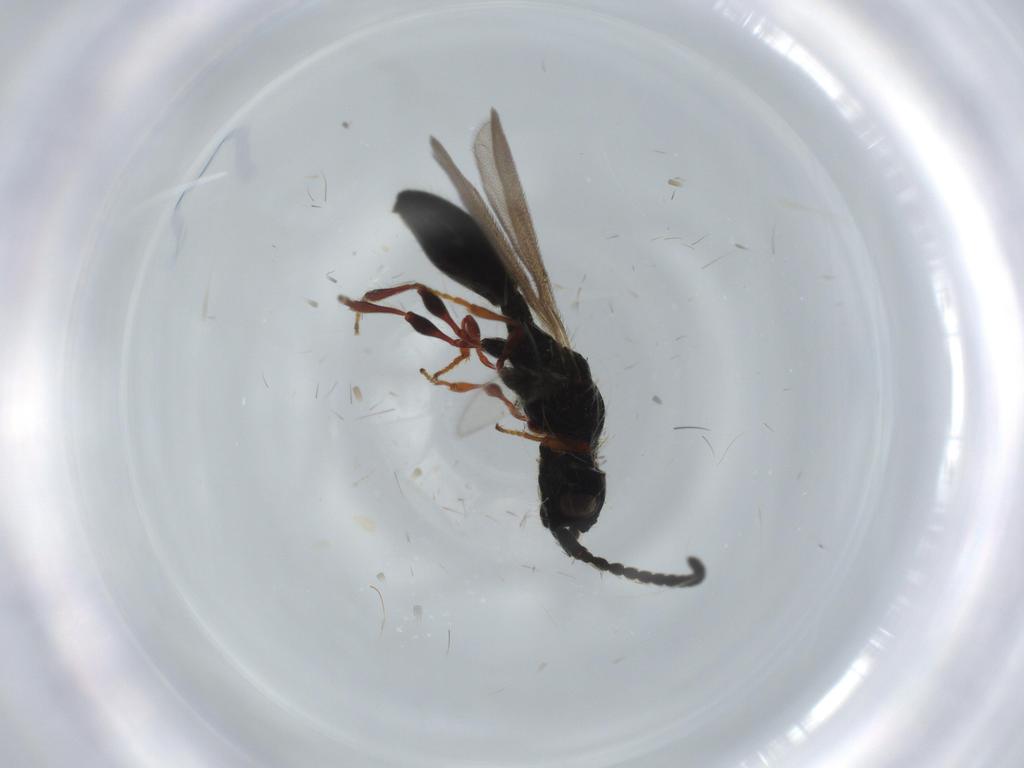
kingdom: Animalia
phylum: Arthropoda
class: Insecta
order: Hymenoptera
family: Diapriidae
